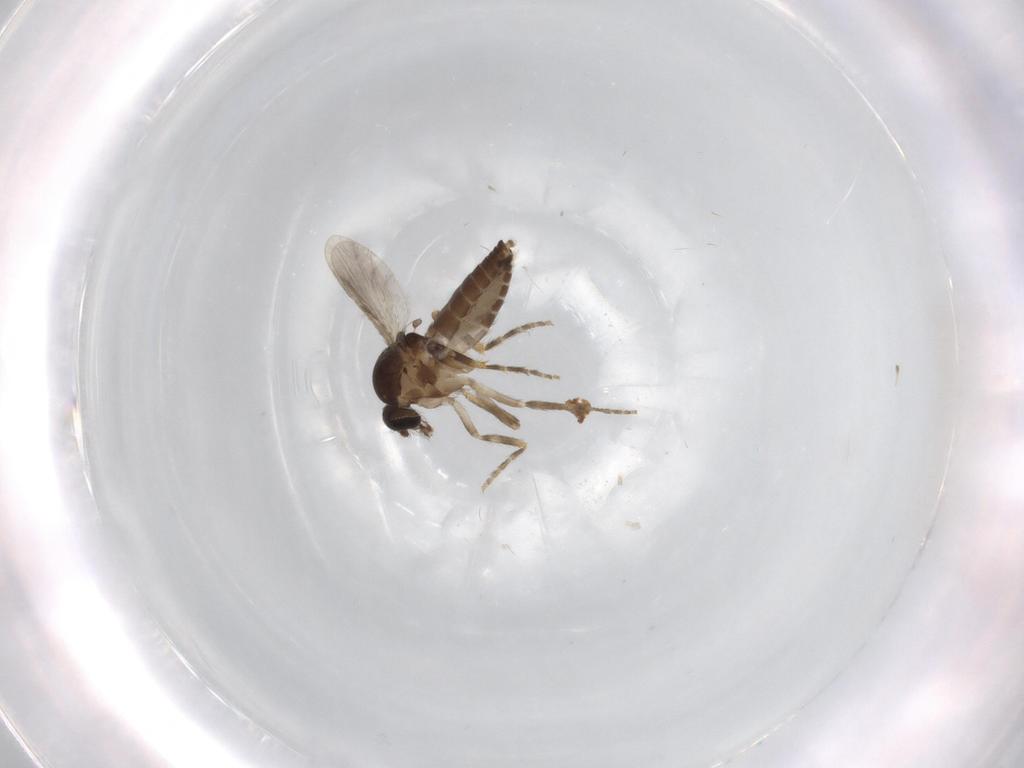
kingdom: Animalia
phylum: Arthropoda
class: Insecta
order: Diptera
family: Ceratopogonidae
